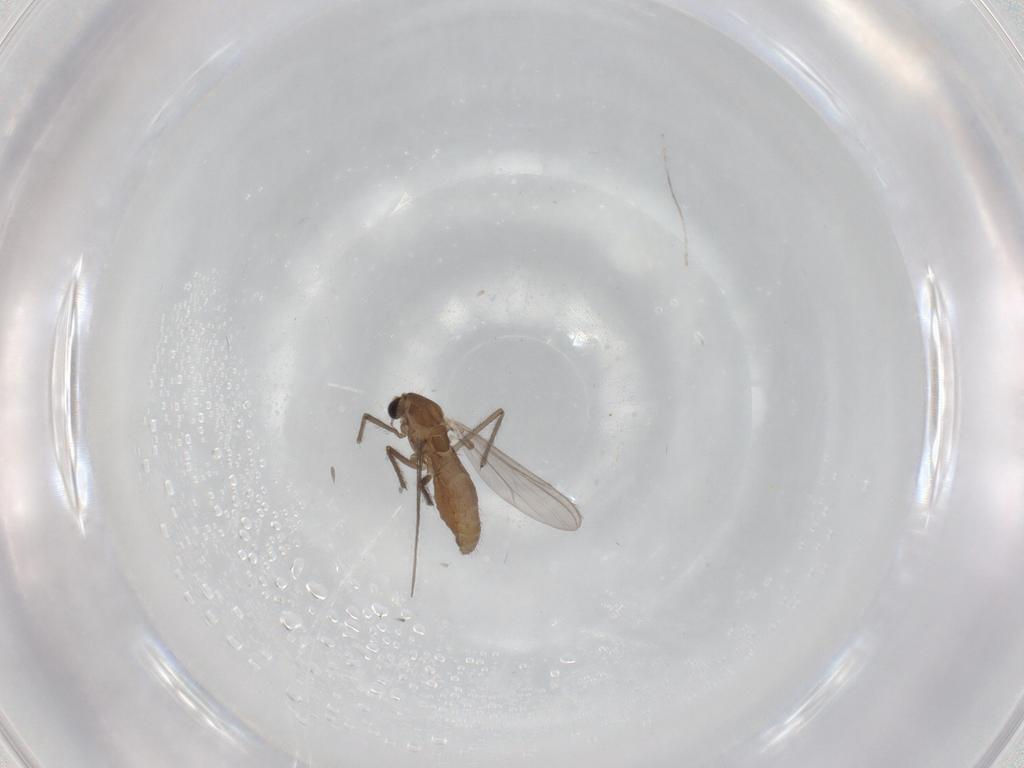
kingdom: Animalia
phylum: Arthropoda
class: Insecta
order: Diptera
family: Chironomidae
